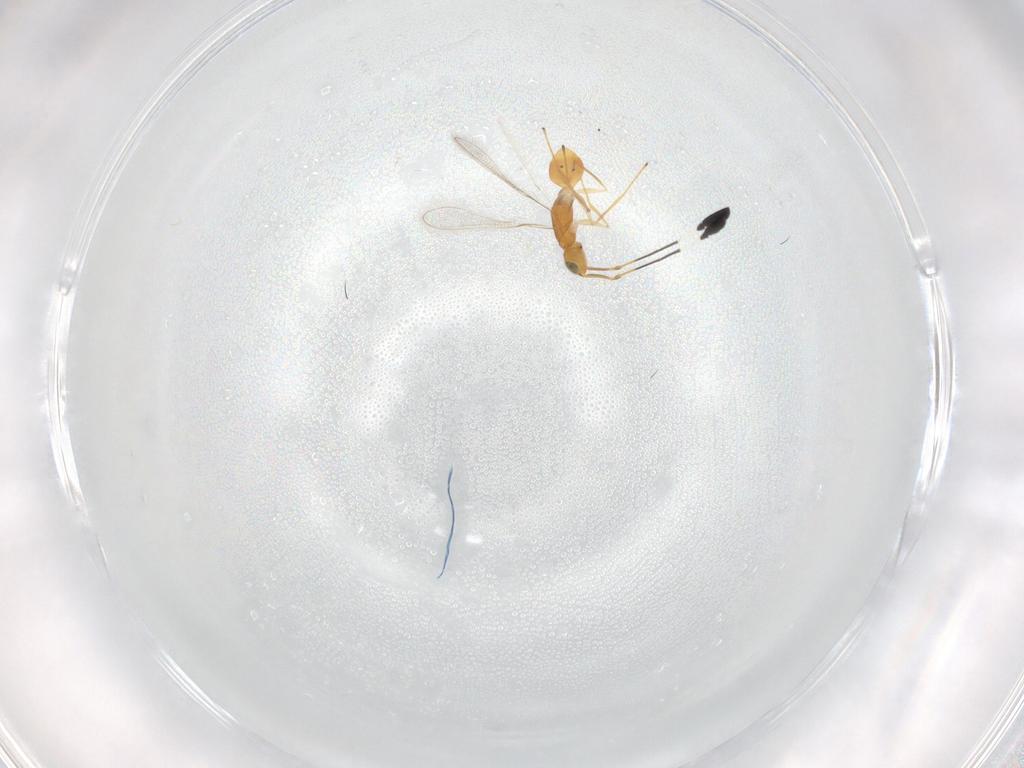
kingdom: Animalia
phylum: Arthropoda
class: Insecta
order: Hymenoptera
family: Mymaridae
